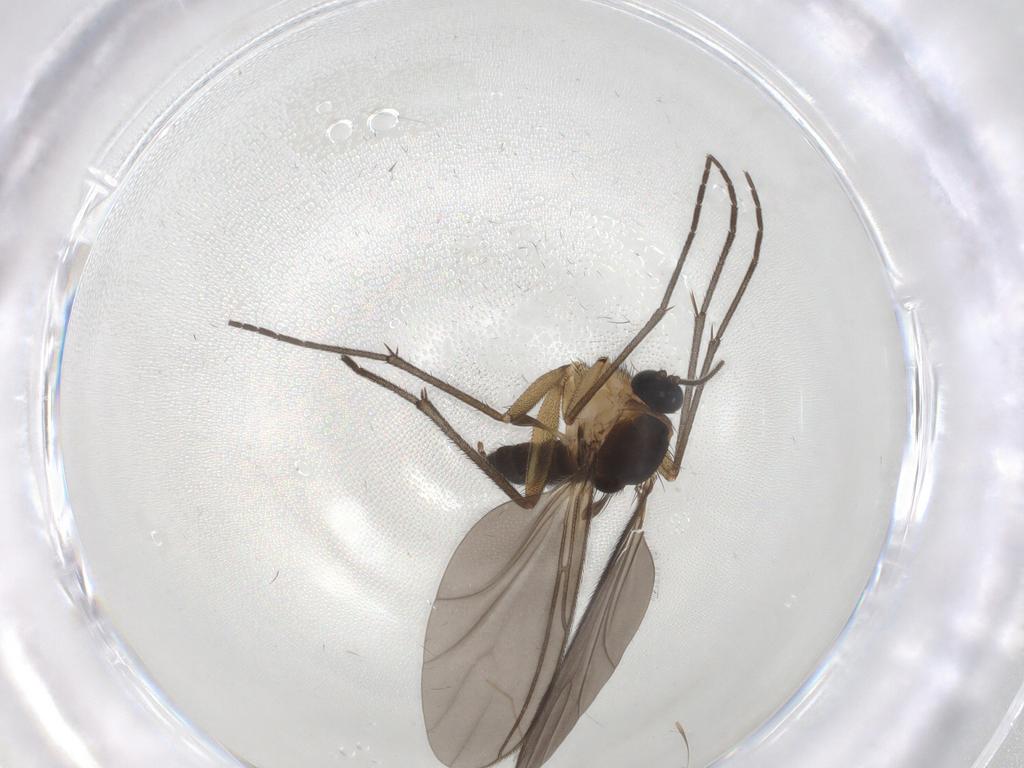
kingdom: Animalia
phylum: Arthropoda
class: Insecta
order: Diptera
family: Sciaridae
